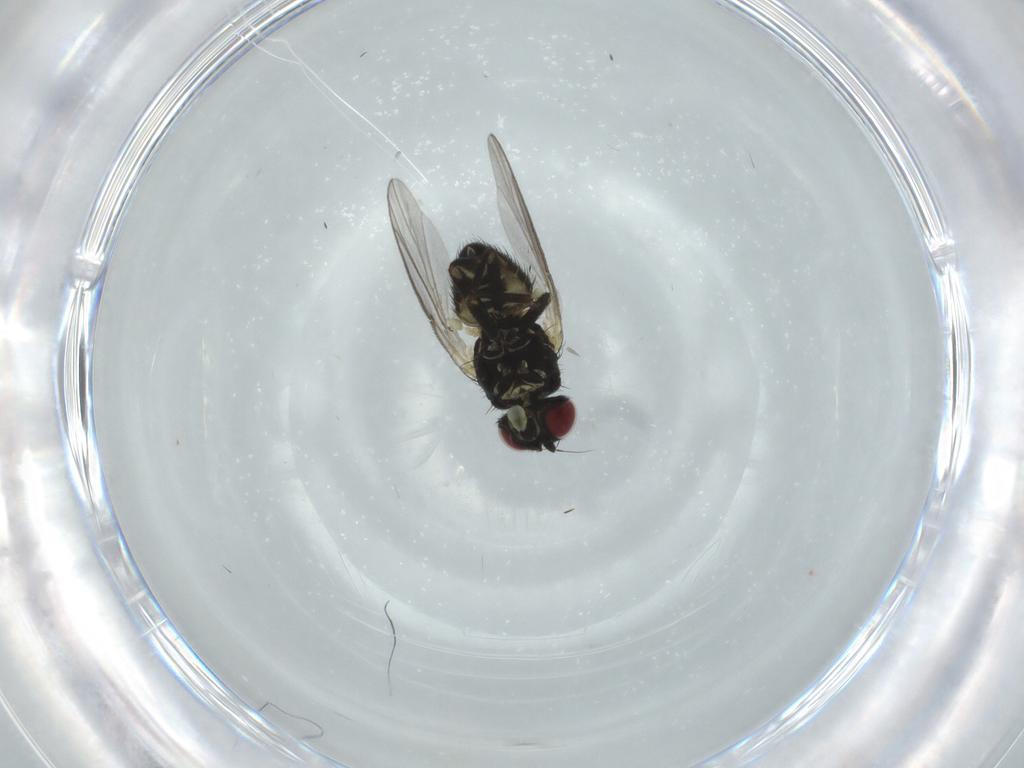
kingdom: Animalia
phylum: Arthropoda
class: Insecta
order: Diptera
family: Agromyzidae
